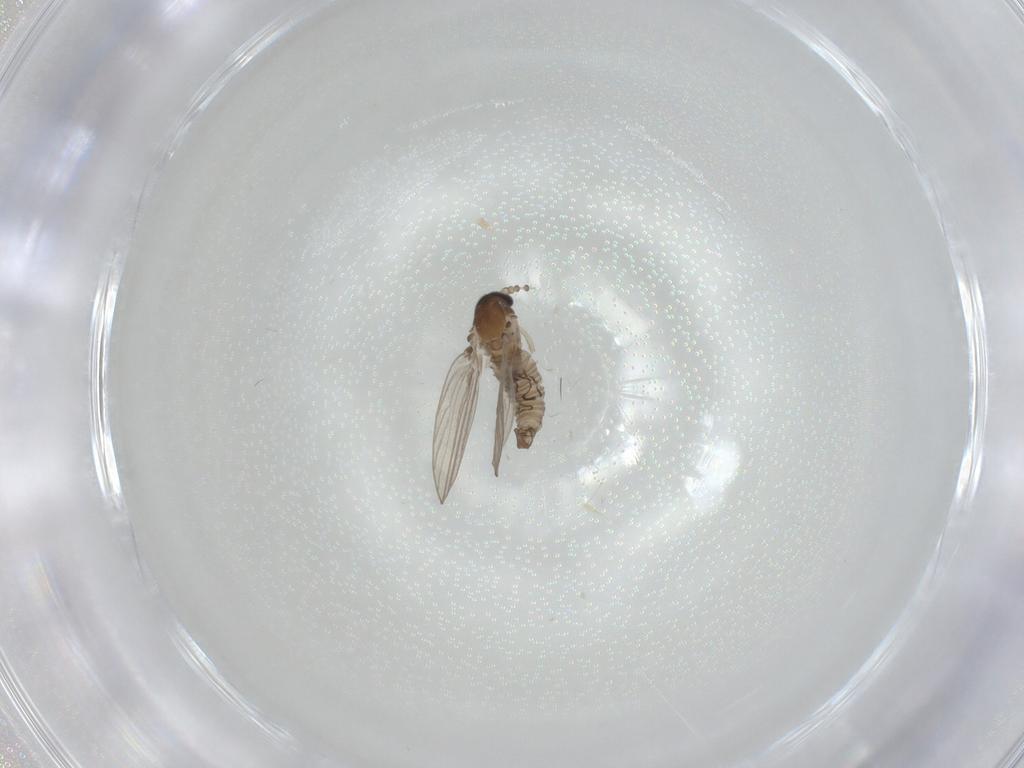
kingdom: Animalia
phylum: Arthropoda
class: Insecta
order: Diptera
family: Psychodidae
